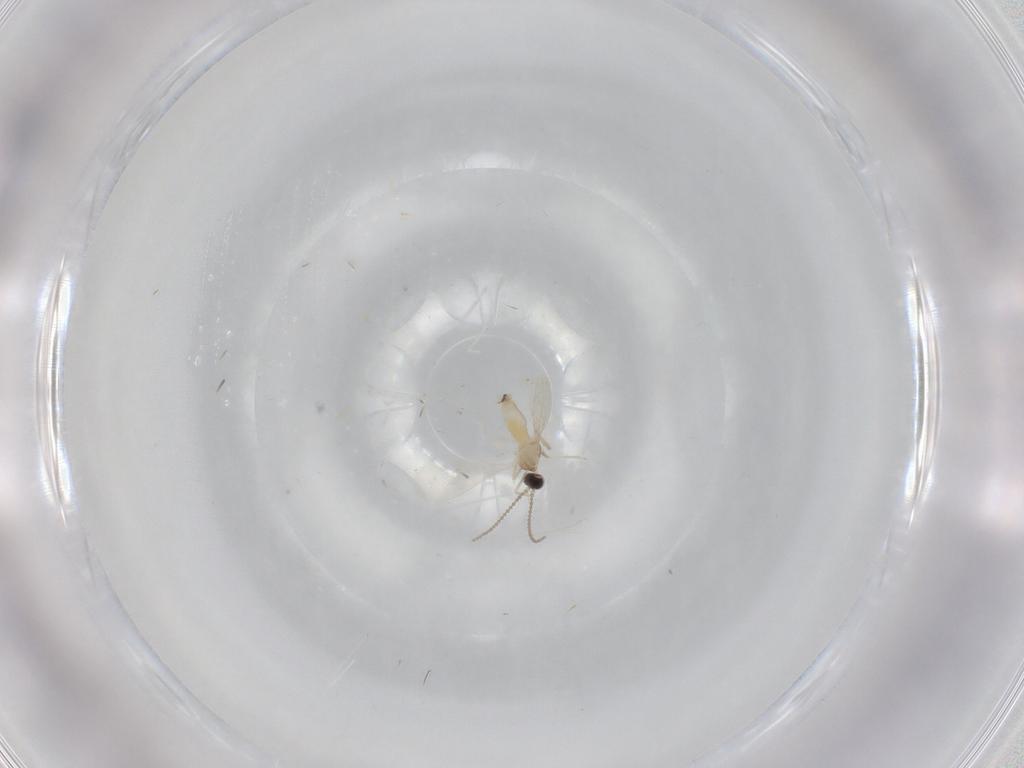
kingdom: Animalia
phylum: Arthropoda
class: Insecta
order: Diptera
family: Cecidomyiidae
